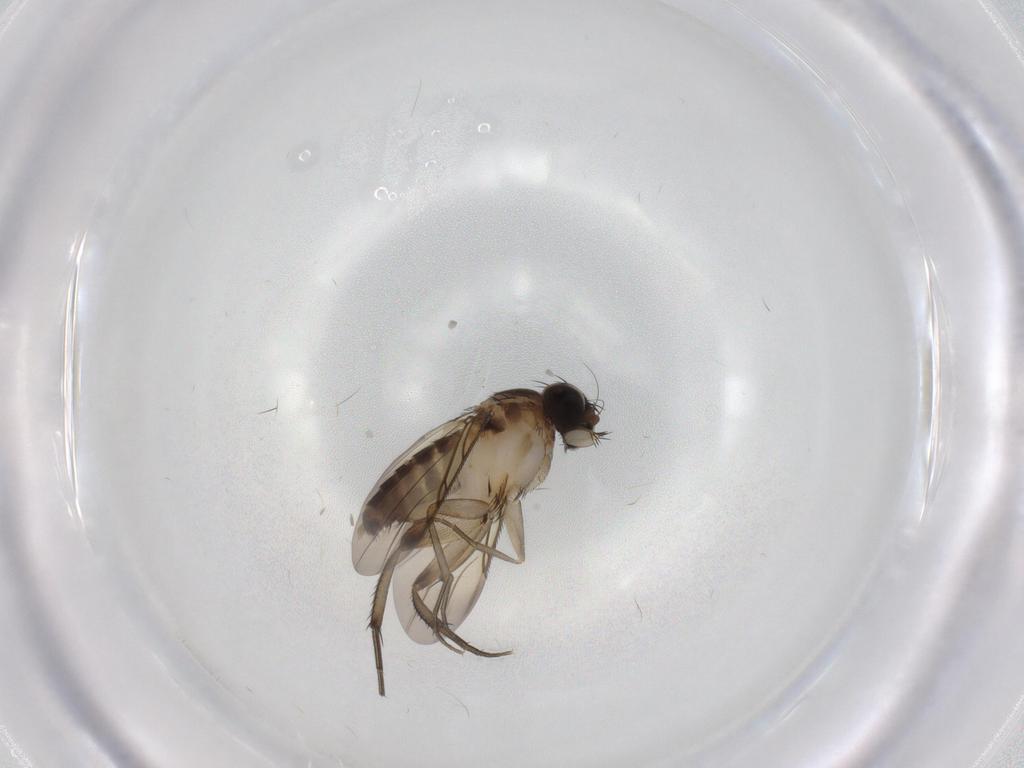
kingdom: Animalia
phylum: Arthropoda
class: Insecta
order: Diptera
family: Phoridae
